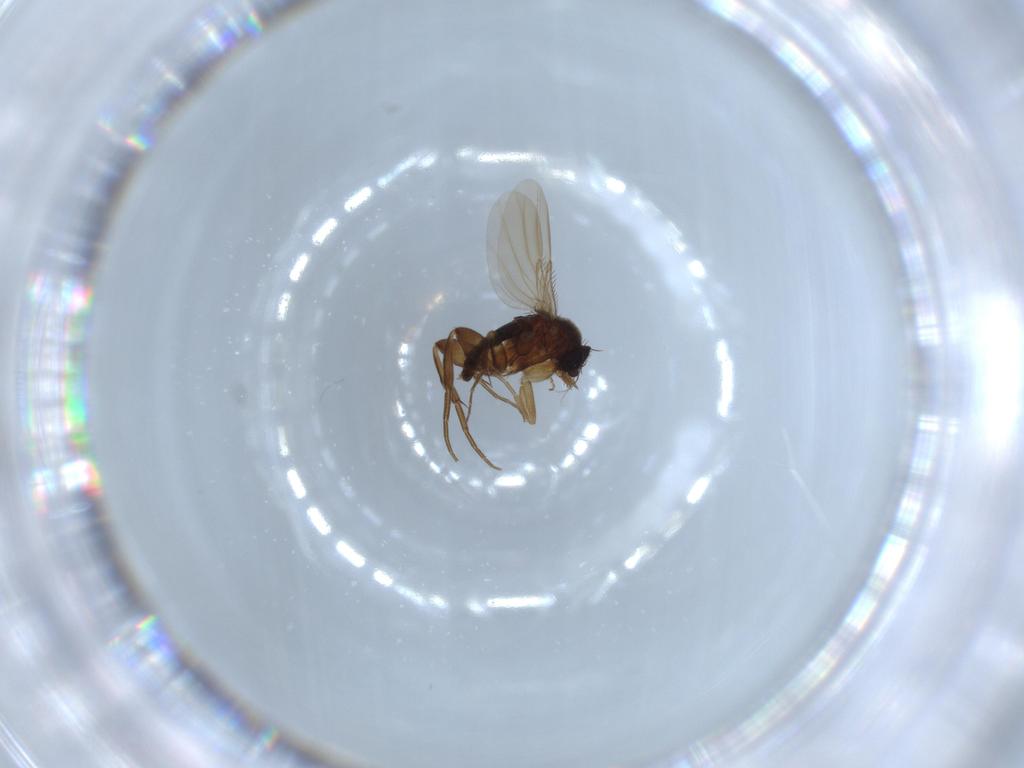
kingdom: Animalia
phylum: Arthropoda
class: Insecta
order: Diptera
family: Phoridae
